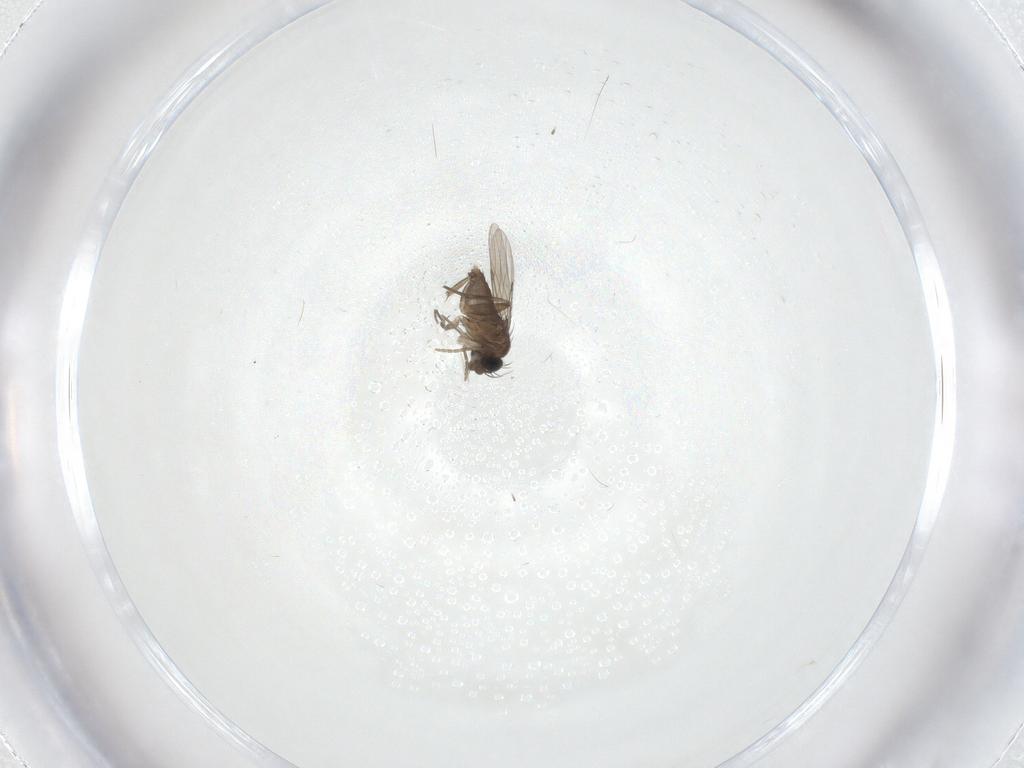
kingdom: Animalia
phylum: Arthropoda
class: Insecta
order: Diptera
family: Phoridae
